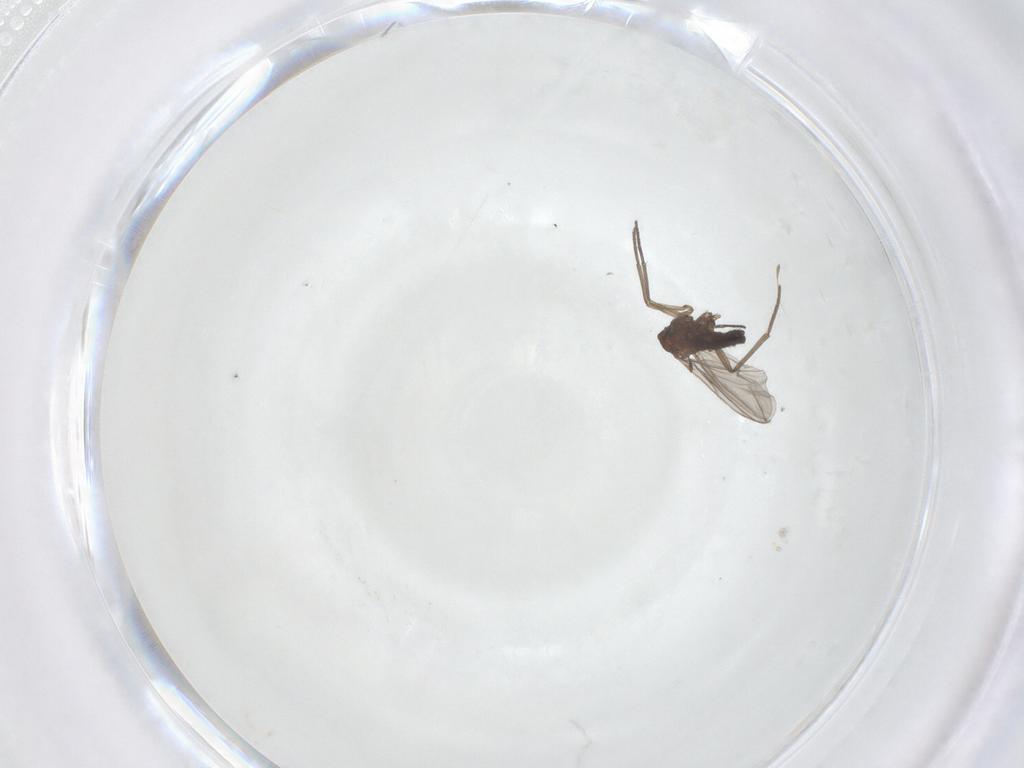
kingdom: Animalia
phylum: Arthropoda
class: Insecta
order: Diptera
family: Sciaridae
